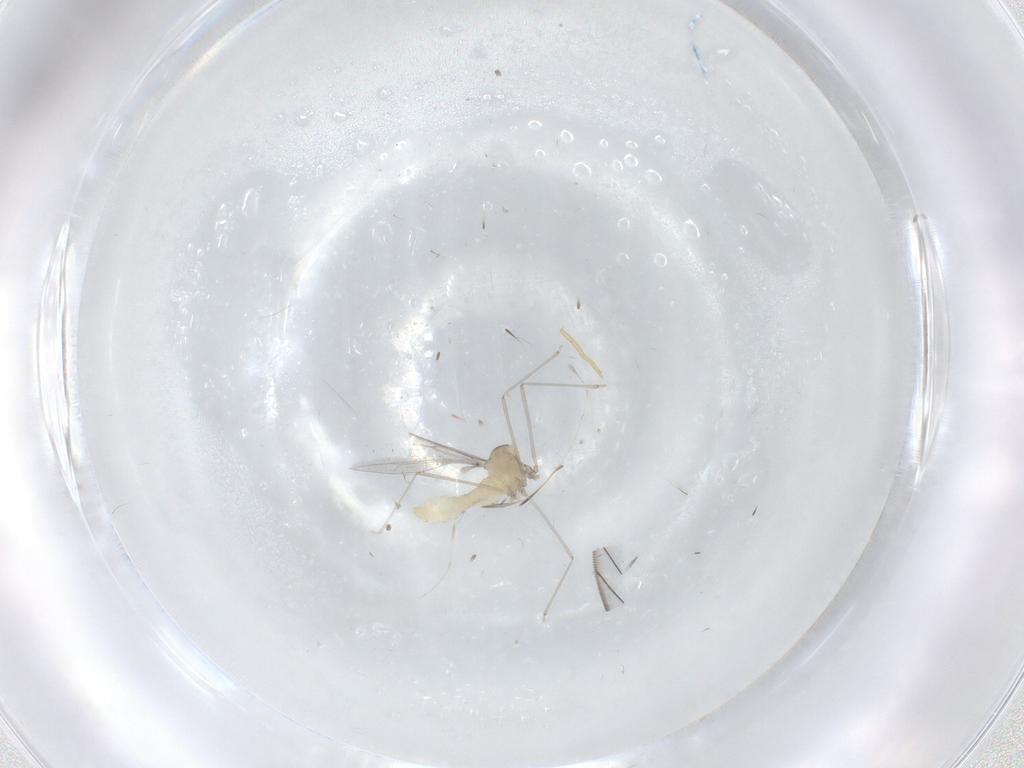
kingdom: Animalia
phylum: Arthropoda
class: Insecta
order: Diptera
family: Cecidomyiidae
